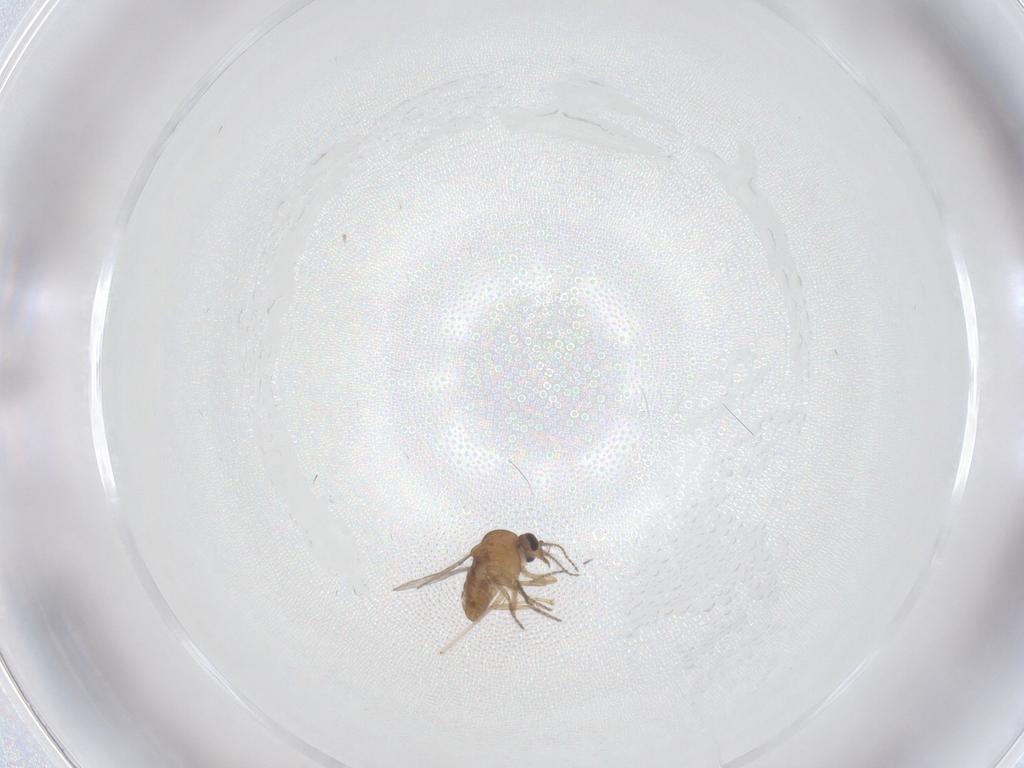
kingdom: Animalia
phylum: Arthropoda
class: Insecta
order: Diptera
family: Ceratopogonidae
